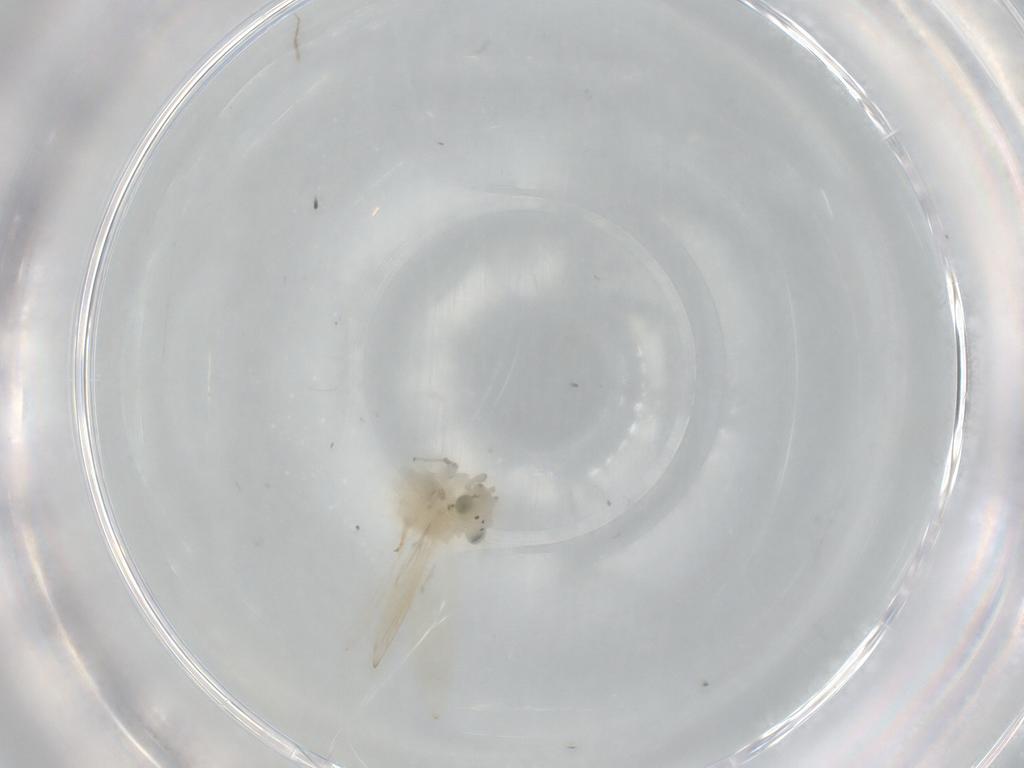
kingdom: Animalia
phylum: Arthropoda
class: Insecta
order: Psocodea
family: Lepidopsocidae
